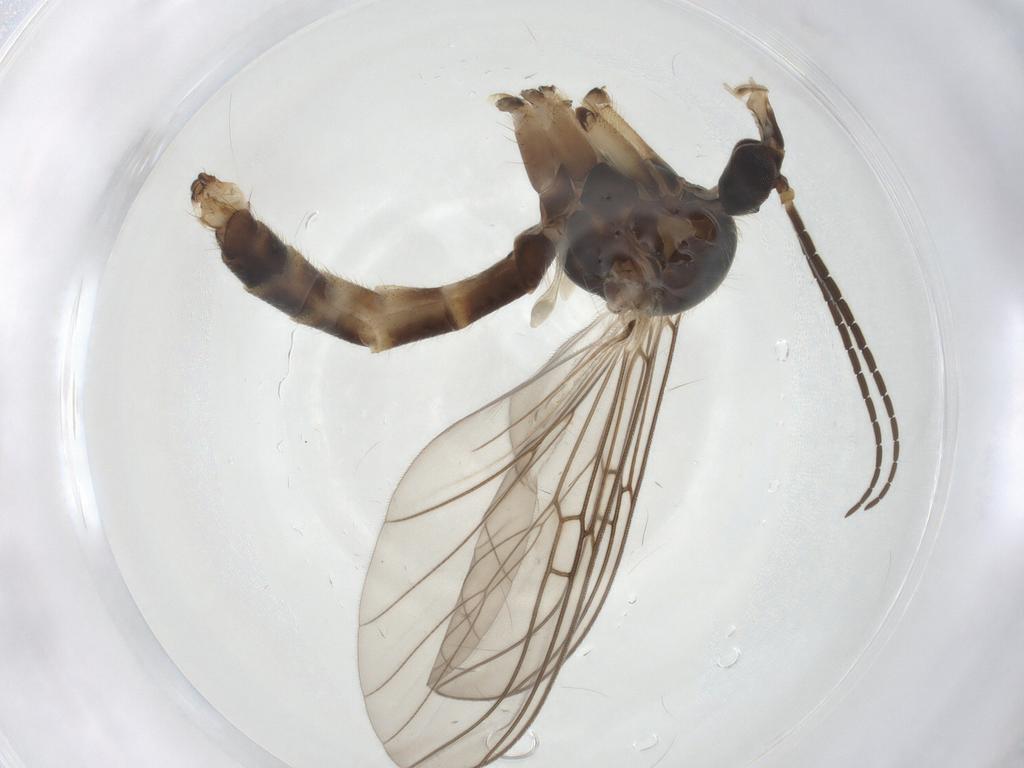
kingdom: Animalia
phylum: Arthropoda
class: Insecta
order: Diptera
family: Mycetophilidae
